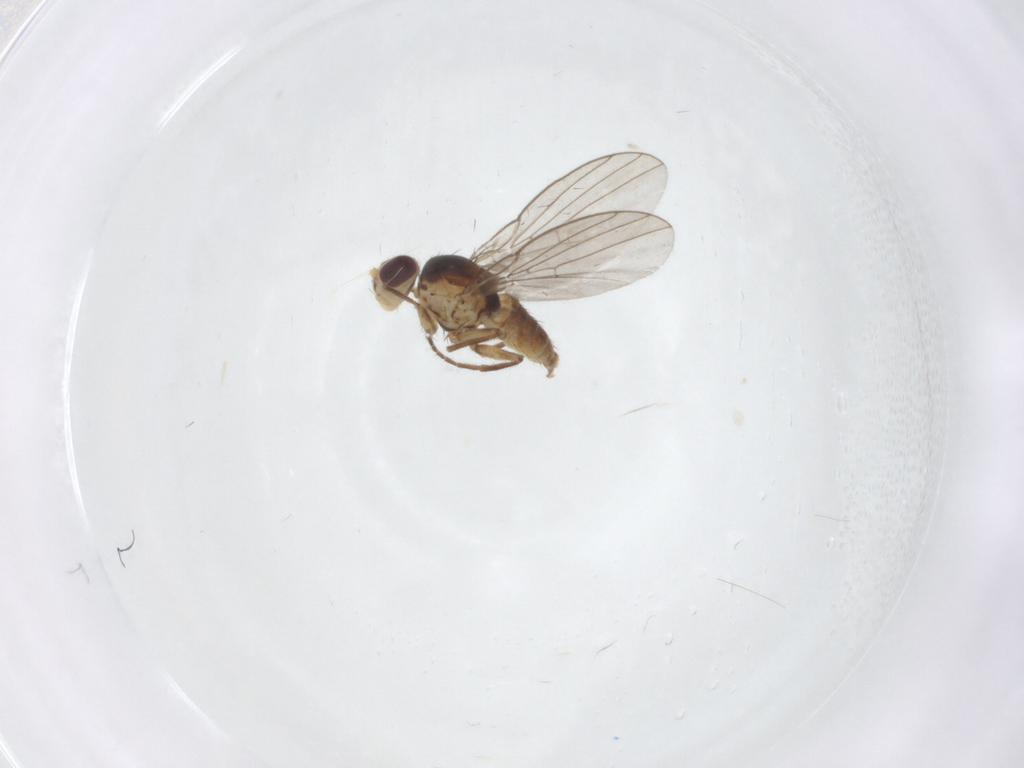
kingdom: Animalia
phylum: Arthropoda
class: Insecta
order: Diptera
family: Agromyzidae
